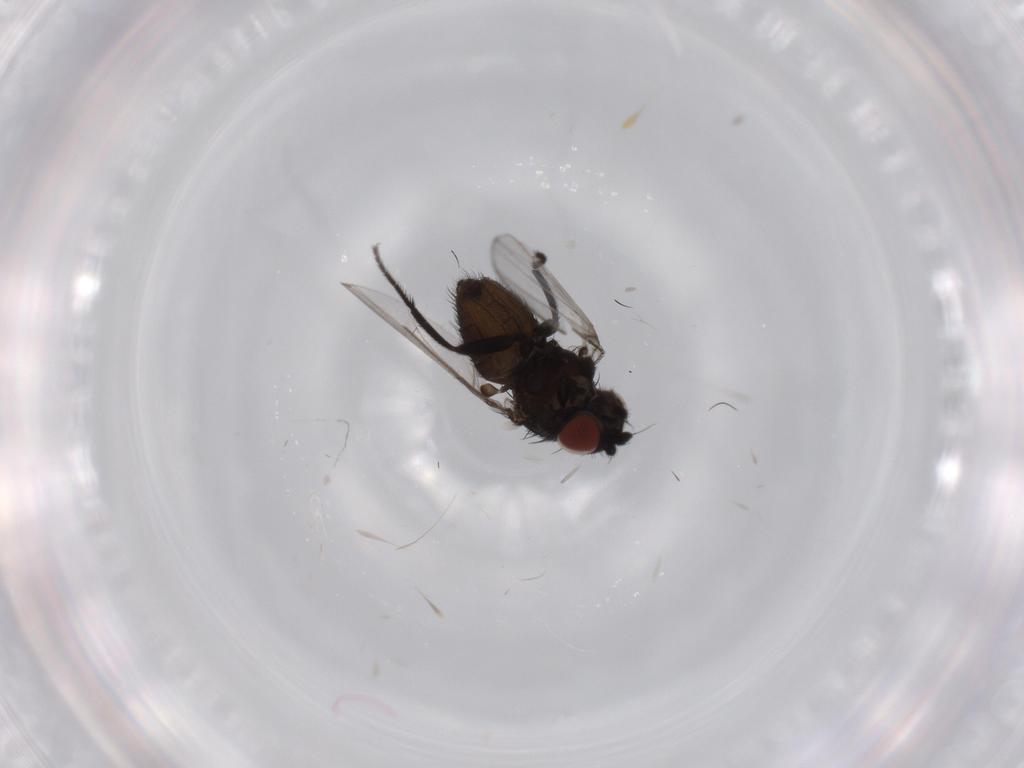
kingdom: Animalia
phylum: Arthropoda
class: Insecta
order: Diptera
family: Milichiidae
